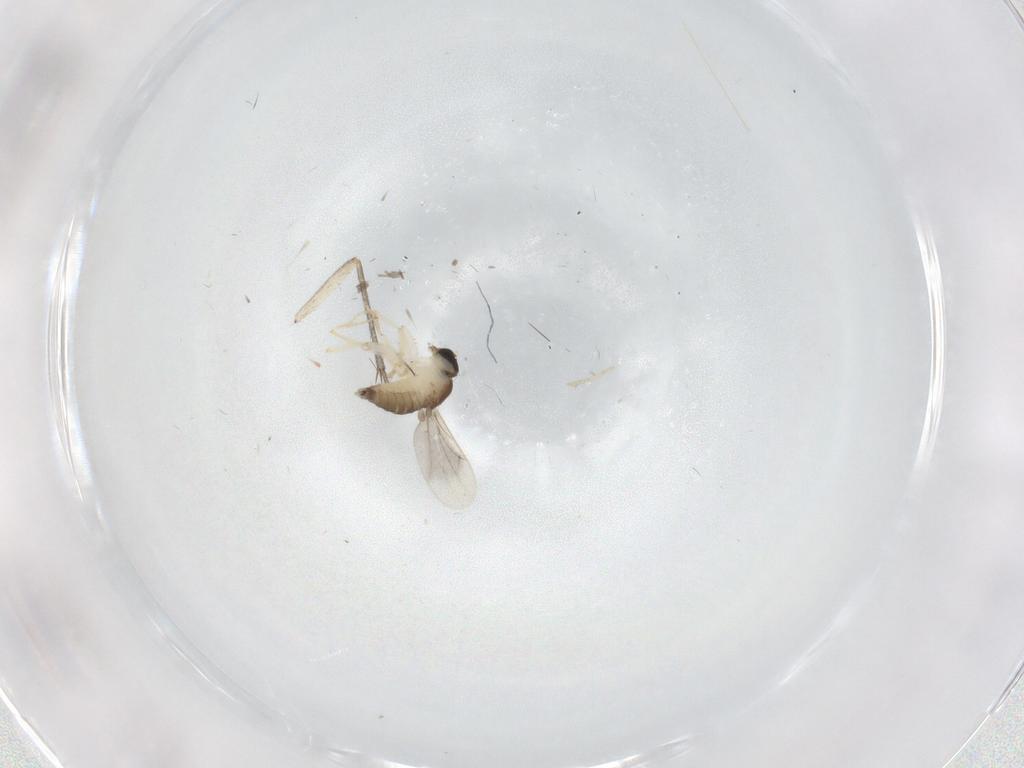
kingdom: Animalia
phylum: Arthropoda
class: Insecta
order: Diptera
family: Hybotidae
